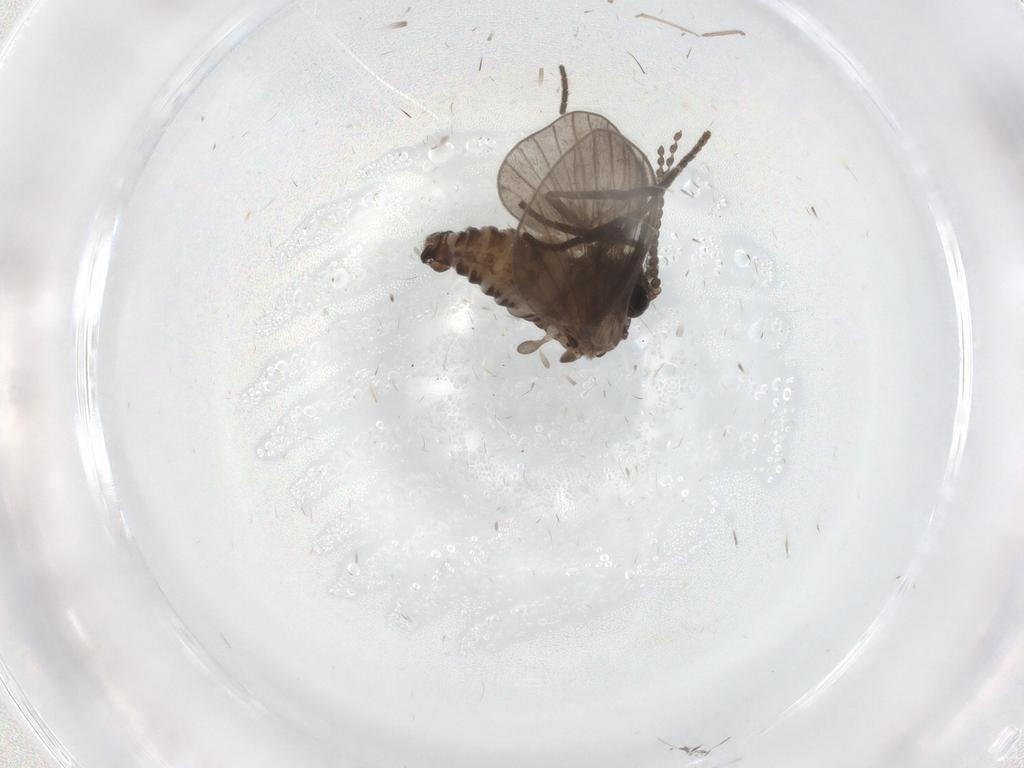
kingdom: Animalia
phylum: Arthropoda
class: Insecta
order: Diptera
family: Psychodidae
